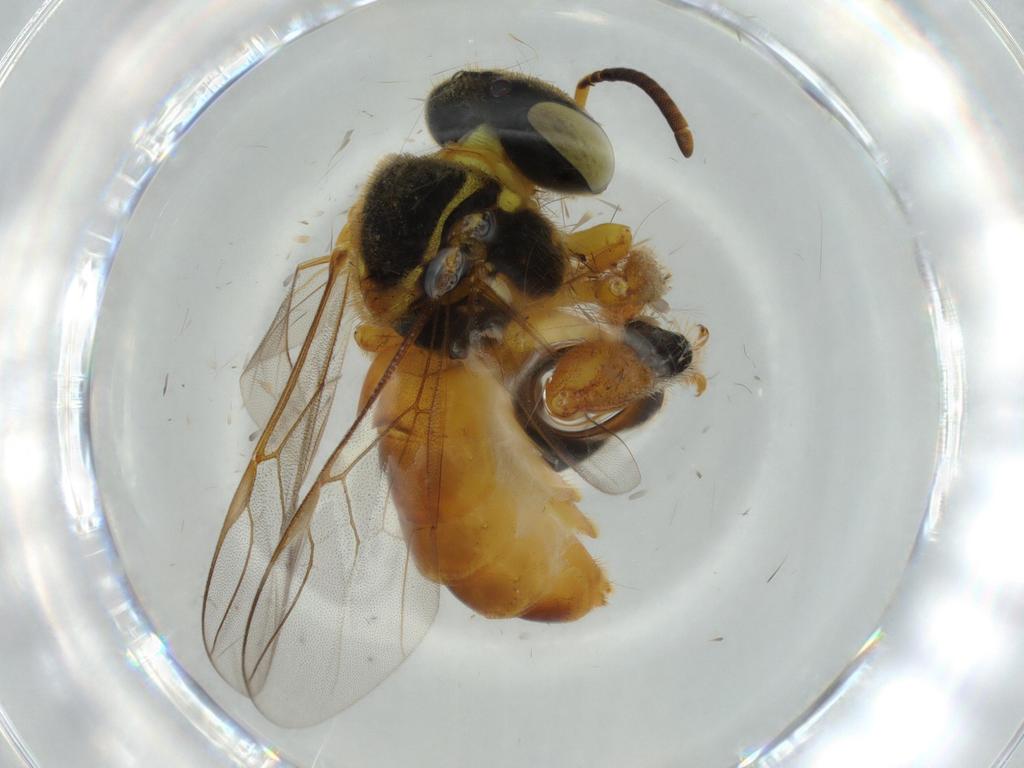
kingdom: Animalia
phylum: Arthropoda
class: Insecta
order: Hymenoptera
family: Apidae
